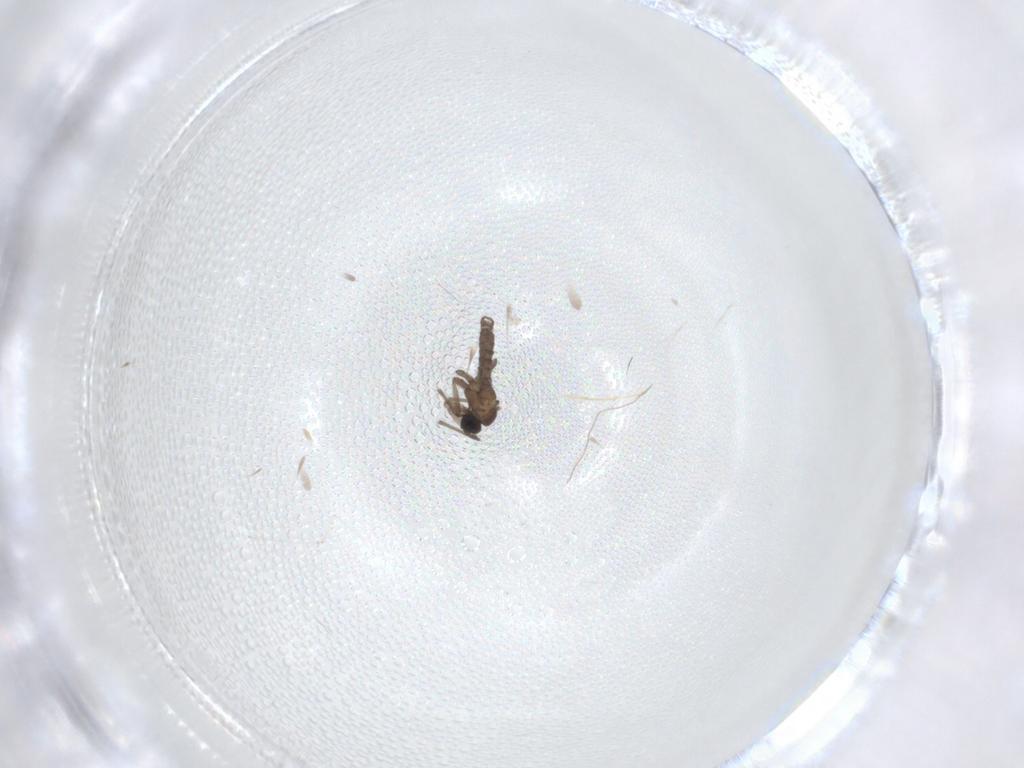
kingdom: Animalia
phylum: Arthropoda
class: Insecta
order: Diptera
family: Sciaridae
